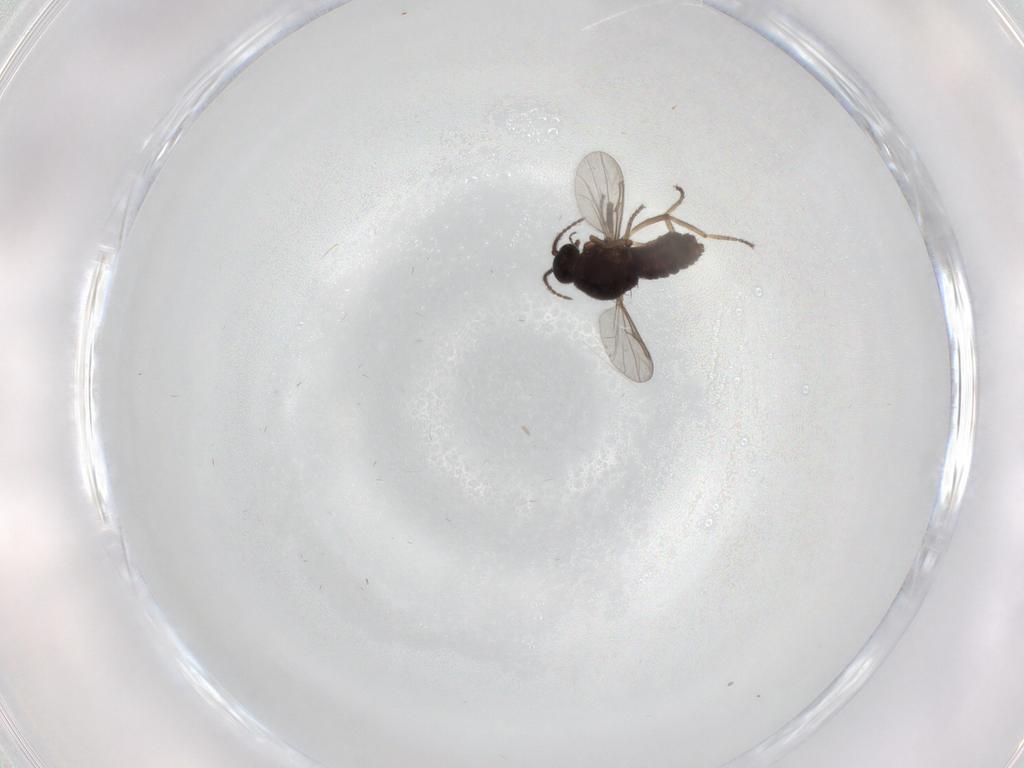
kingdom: Animalia
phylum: Arthropoda
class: Insecta
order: Diptera
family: Ceratopogonidae
